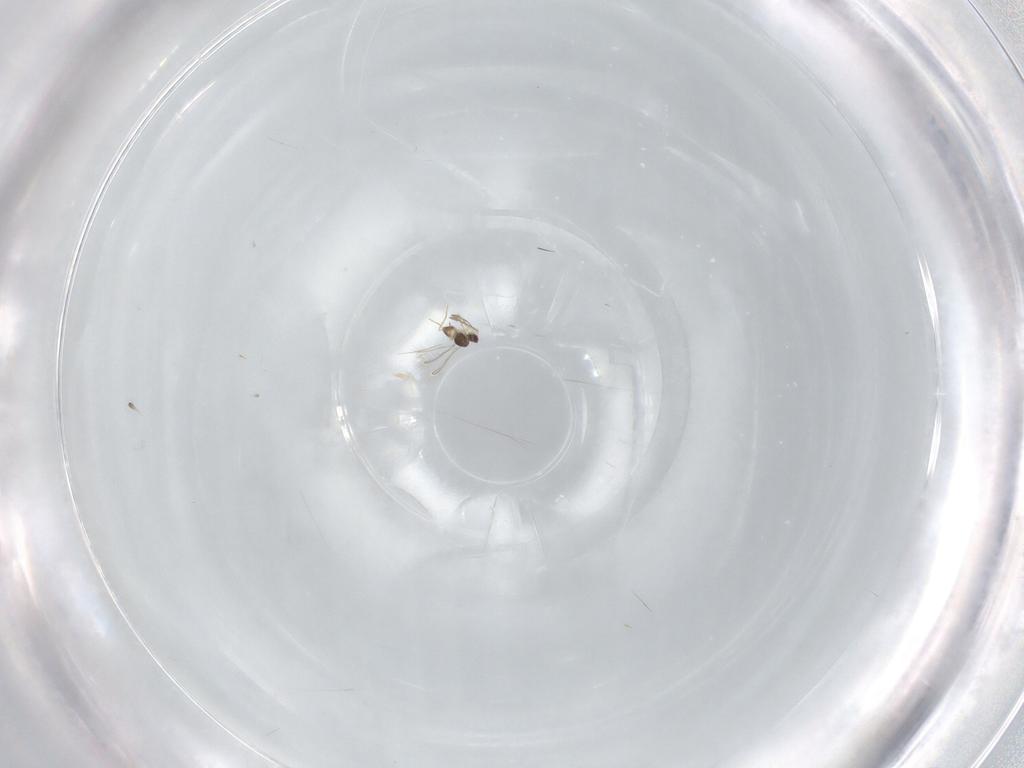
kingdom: Animalia
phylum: Arthropoda
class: Insecta
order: Hymenoptera
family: Mymaridae
